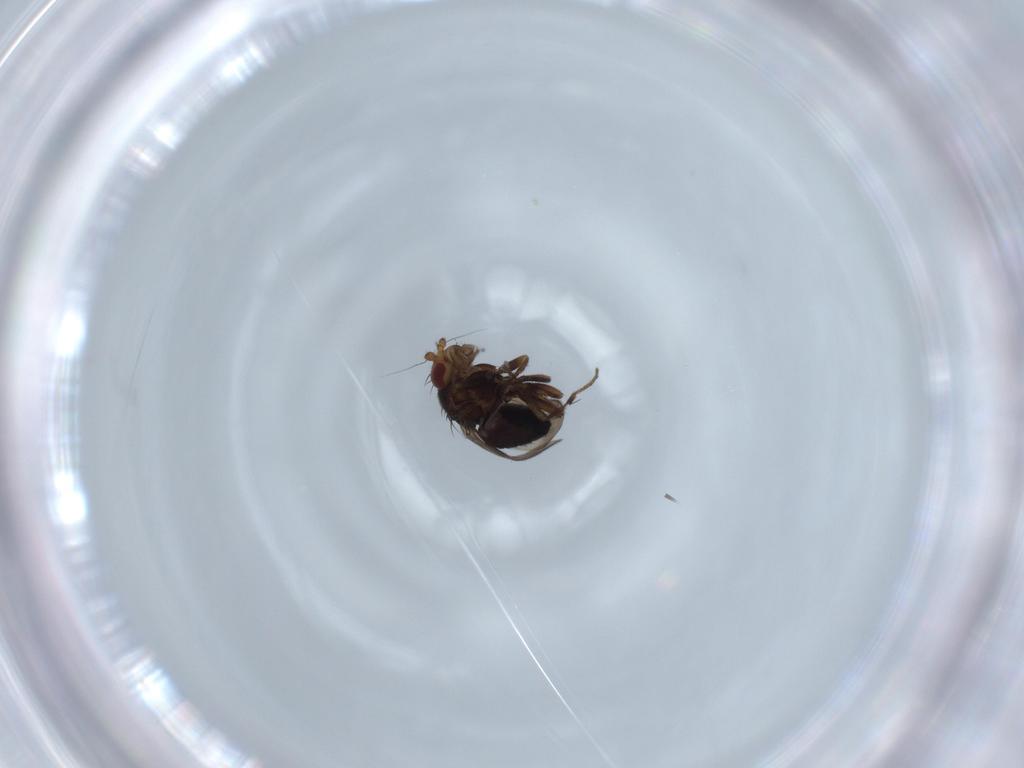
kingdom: Animalia
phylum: Arthropoda
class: Insecta
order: Diptera
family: Sphaeroceridae
